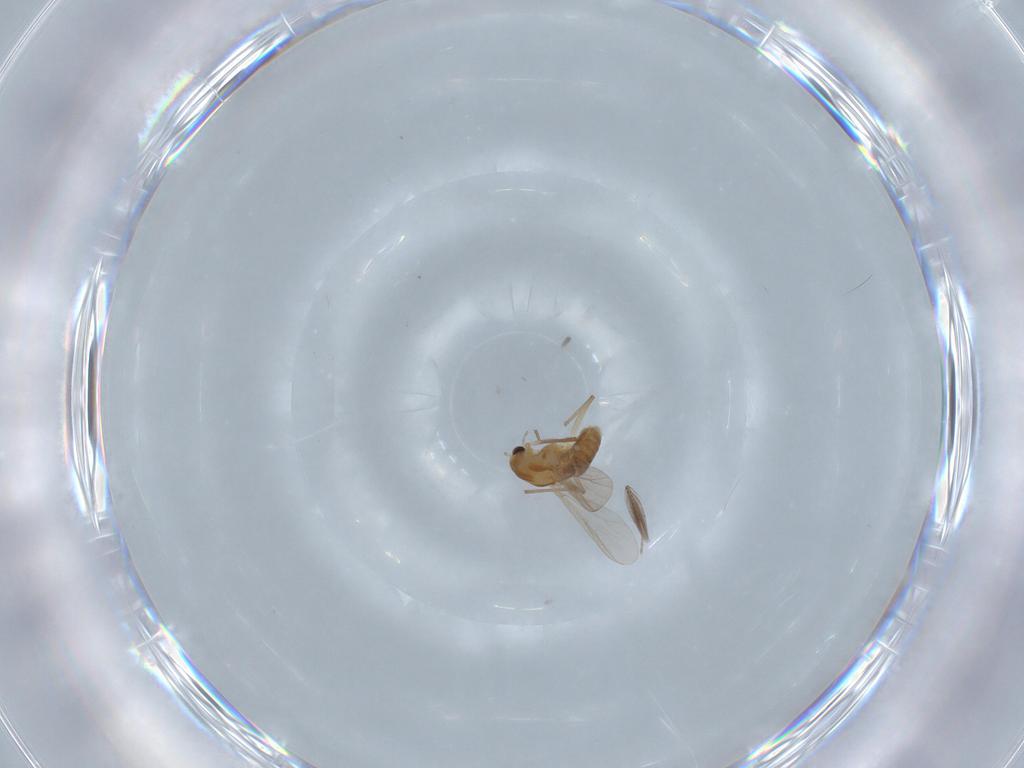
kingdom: Animalia
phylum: Arthropoda
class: Insecta
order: Diptera
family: Chironomidae
